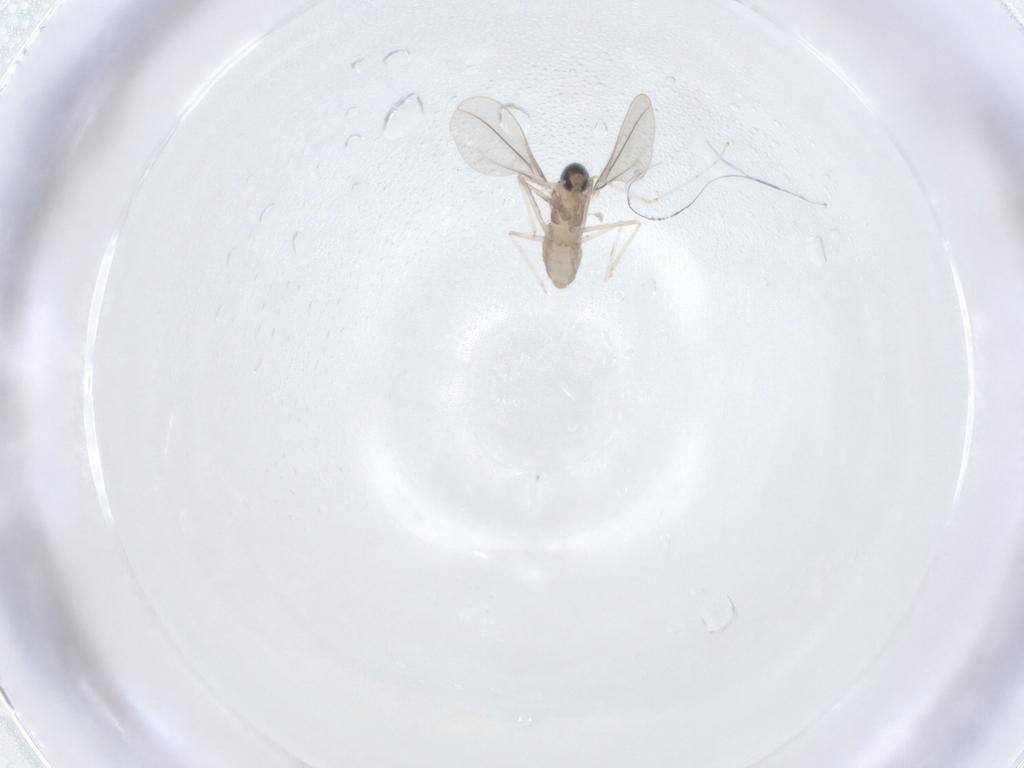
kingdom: Animalia
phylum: Arthropoda
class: Insecta
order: Diptera
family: Cecidomyiidae
